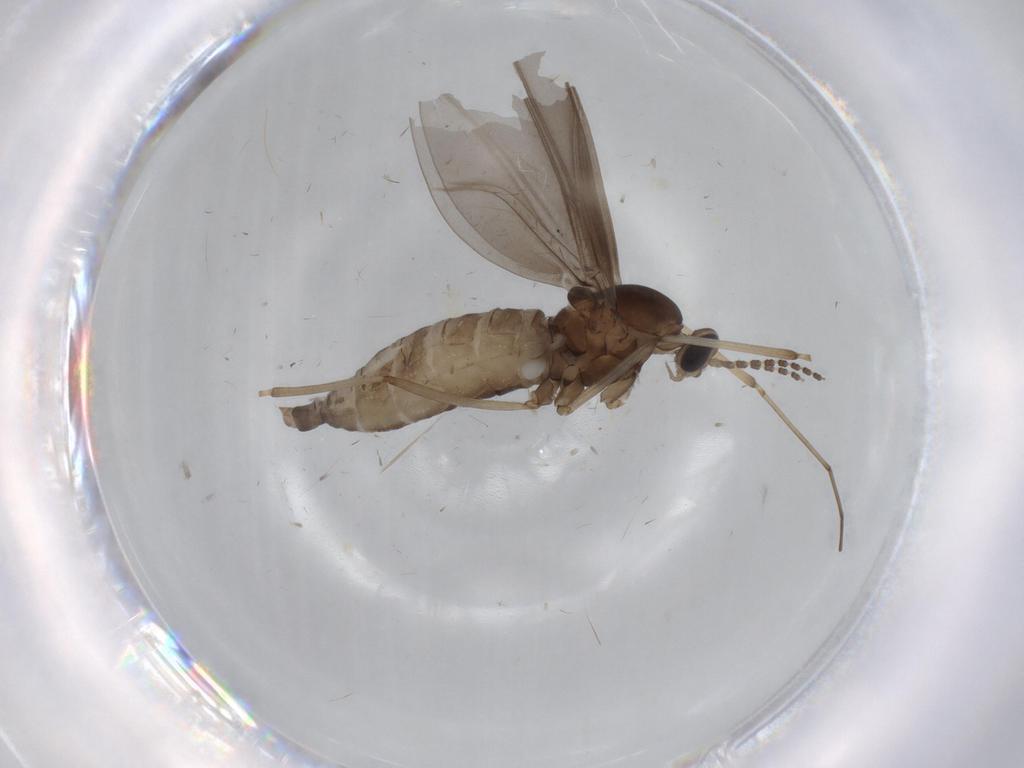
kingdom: Animalia
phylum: Arthropoda
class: Insecta
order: Diptera
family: Cecidomyiidae
